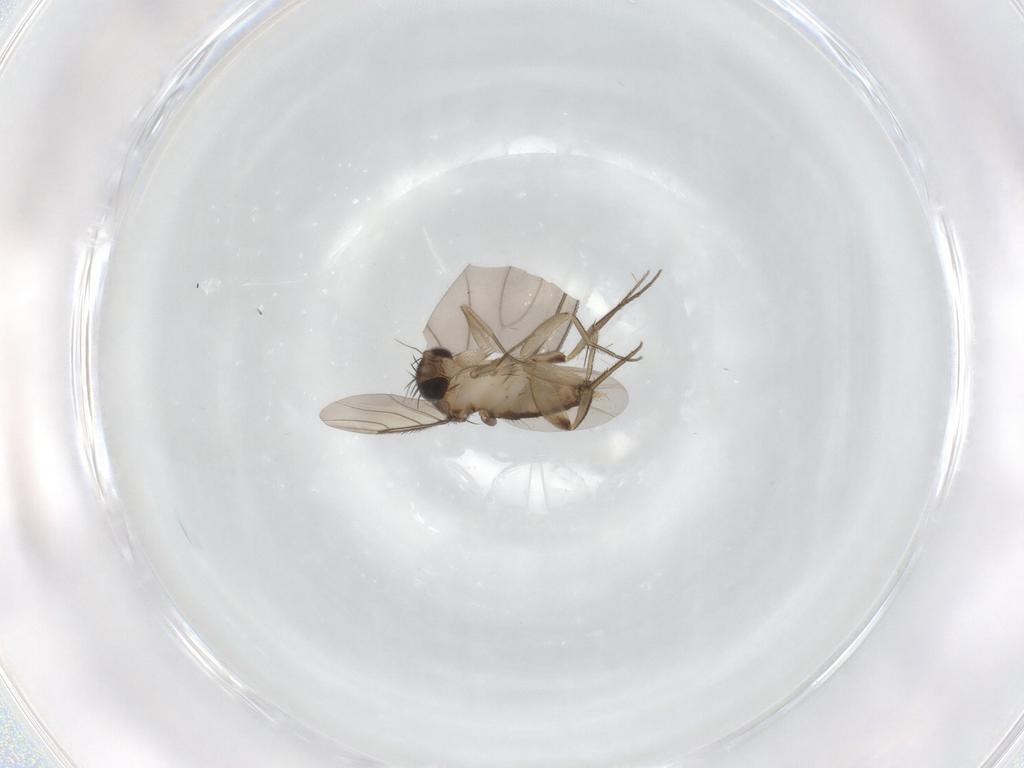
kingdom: Animalia
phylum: Arthropoda
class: Insecta
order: Diptera
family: Phoridae
